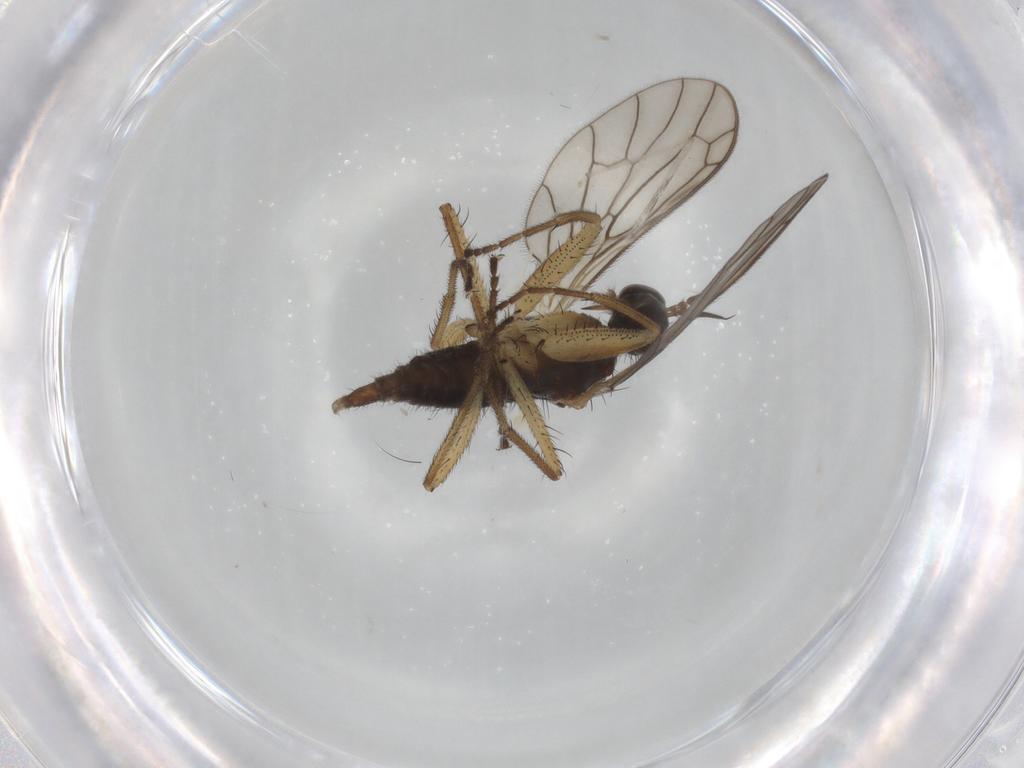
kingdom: Animalia
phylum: Arthropoda
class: Insecta
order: Diptera
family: Empididae
